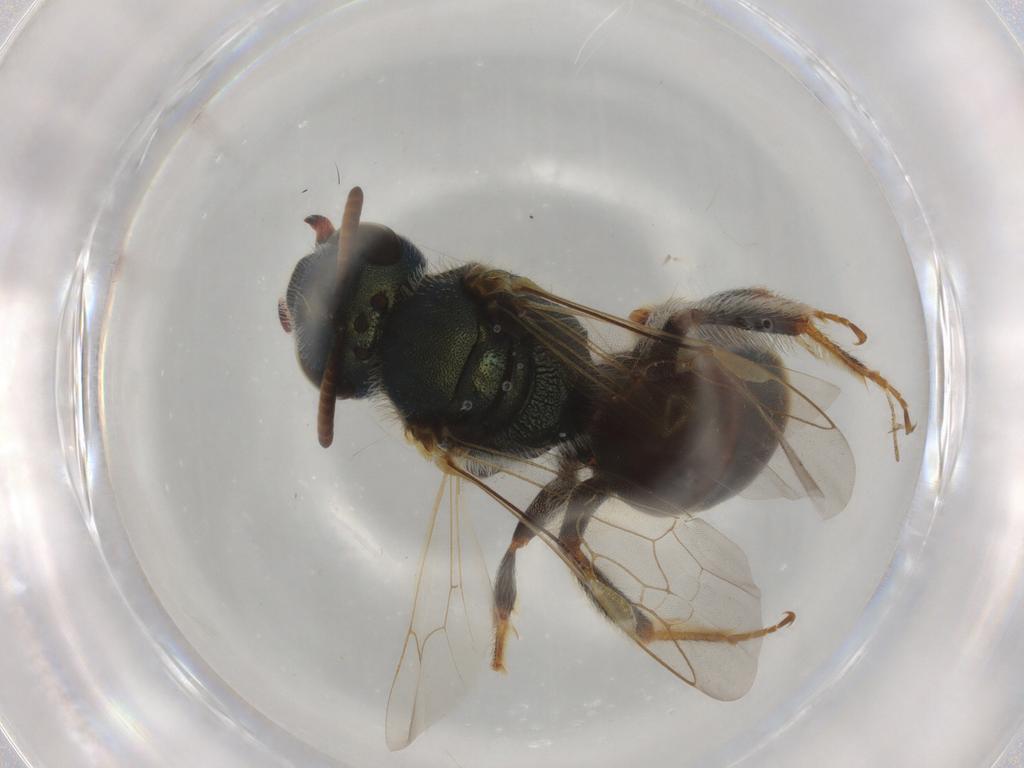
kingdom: Animalia
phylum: Arthropoda
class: Insecta
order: Hymenoptera
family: Halictidae
